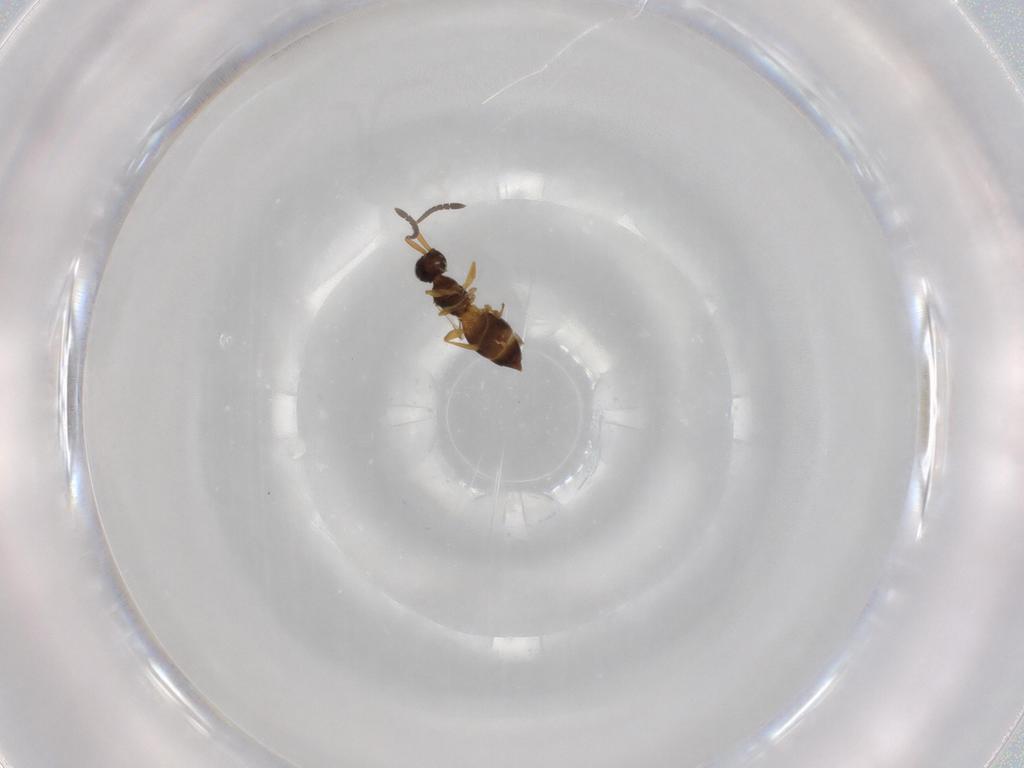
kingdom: Animalia
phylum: Arthropoda
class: Insecta
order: Hymenoptera
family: Megaspilidae
